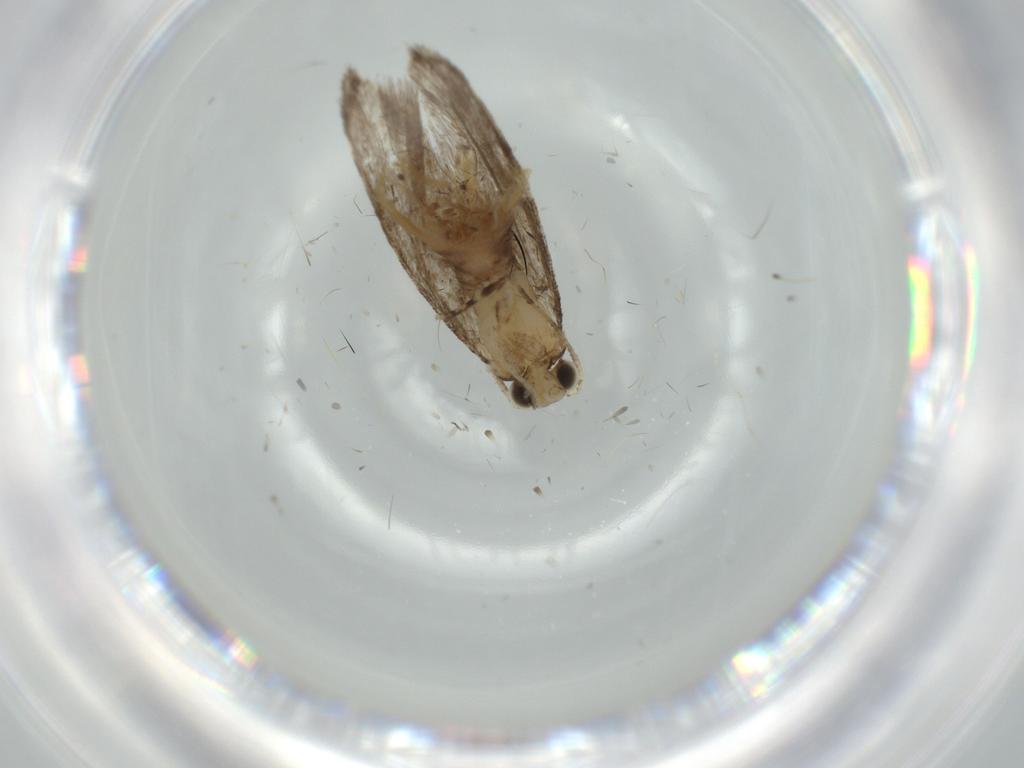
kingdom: Animalia
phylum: Arthropoda
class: Insecta
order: Lepidoptera
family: Tineidae
